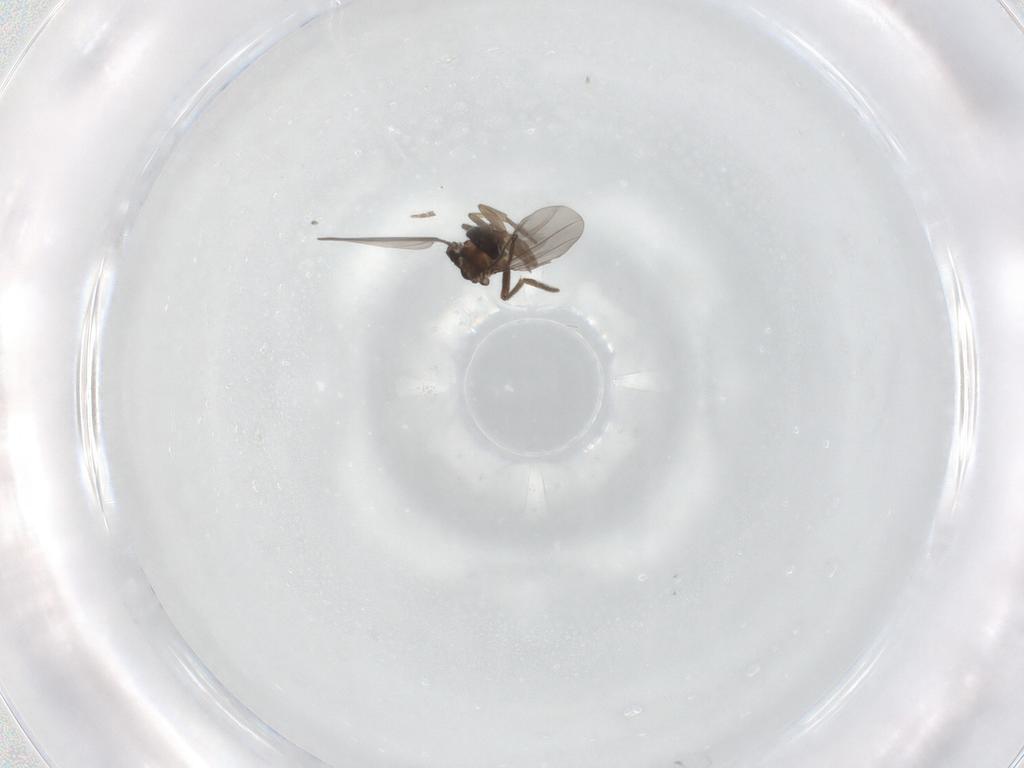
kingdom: Animalia
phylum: Arthropoda
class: Insecta
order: Diptera
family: Phoridae
